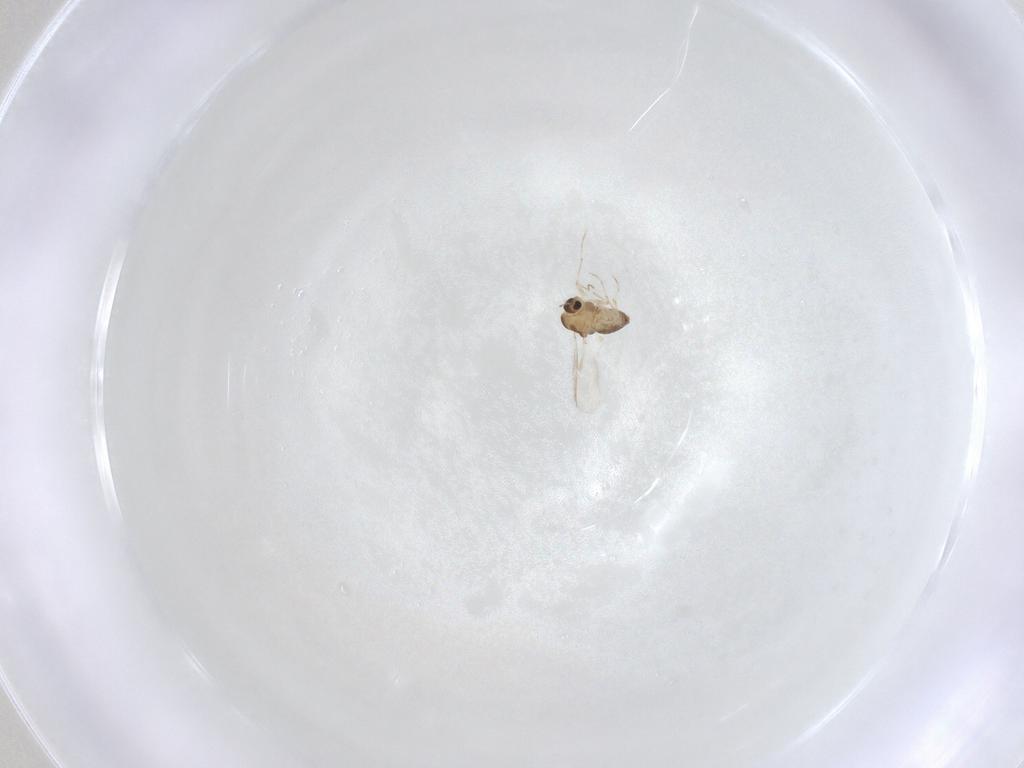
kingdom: Animalia
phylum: Arthropoda
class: Insecta
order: Diptera
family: Chironomidae
